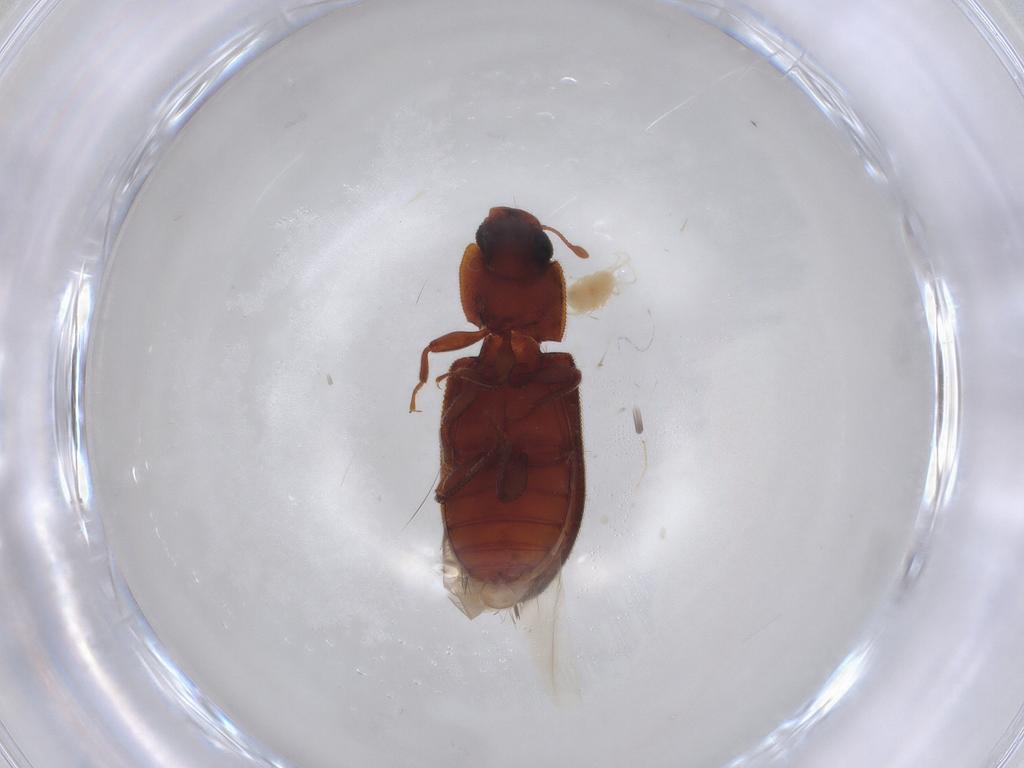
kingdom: Animalia
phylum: Arthropoda
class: Insecta
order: Coleoptera
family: Zopheridae
